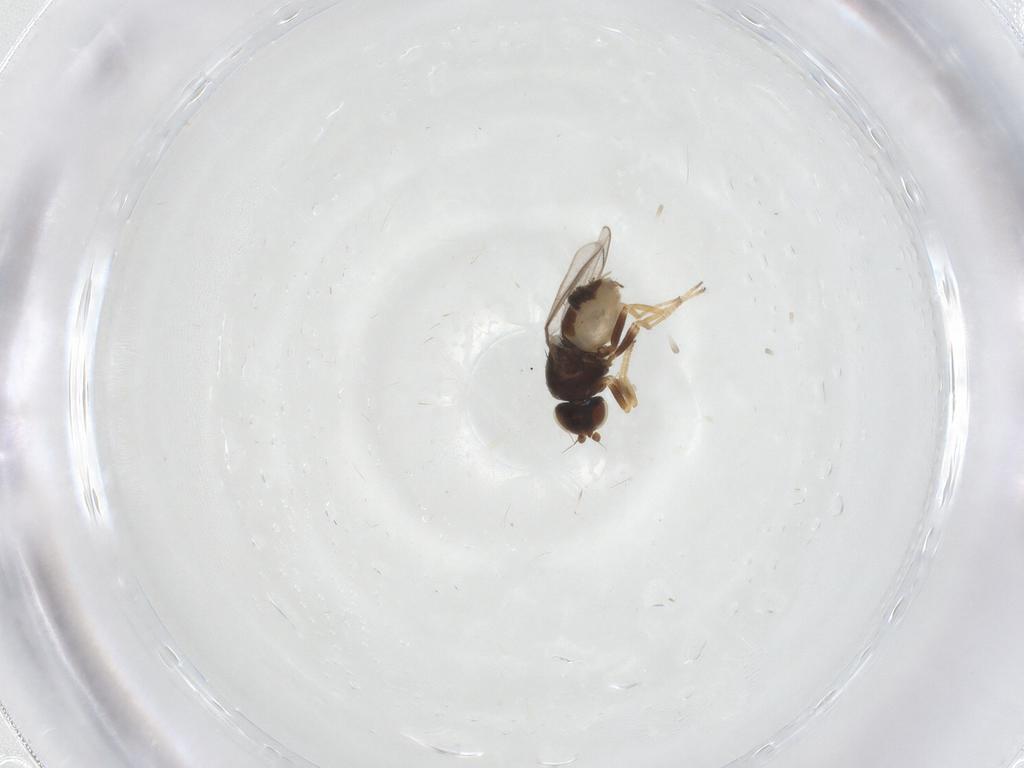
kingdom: Animalia
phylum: Arthropoda
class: Insecta
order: Diptera
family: Chloropidae
